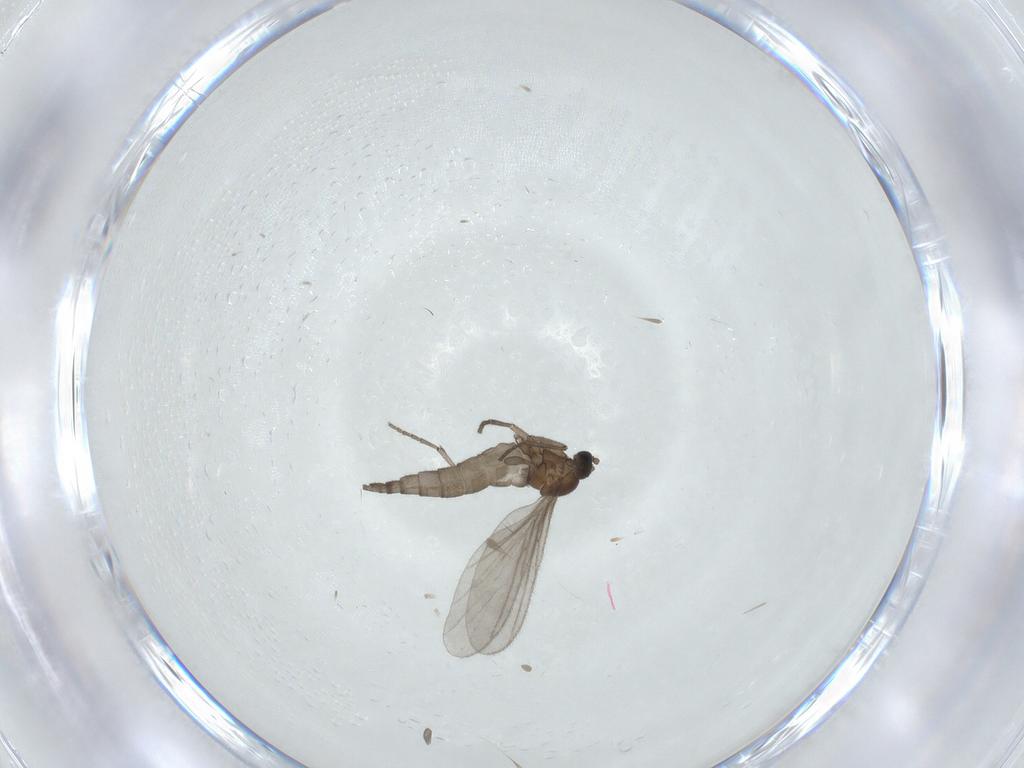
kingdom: Animalia
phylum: Arthropoda
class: Insecta
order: Diptera
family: Sciaridae
